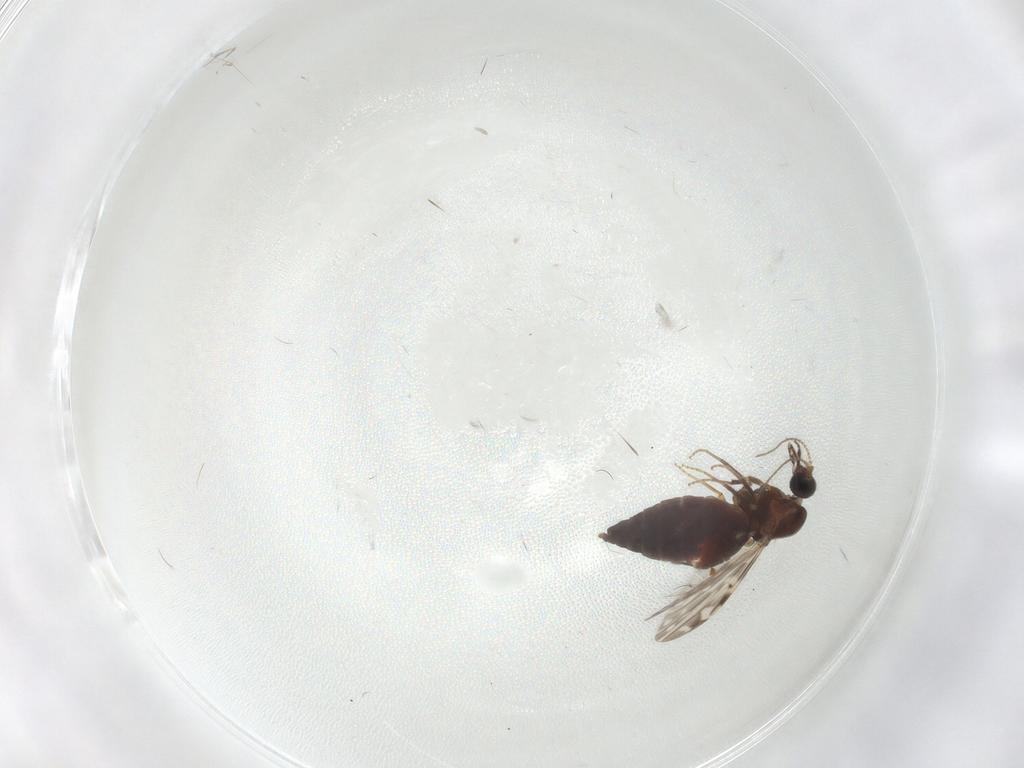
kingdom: Animalia
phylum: Arthropoda
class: Insecta
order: Diptera
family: Ceratopogonidae
